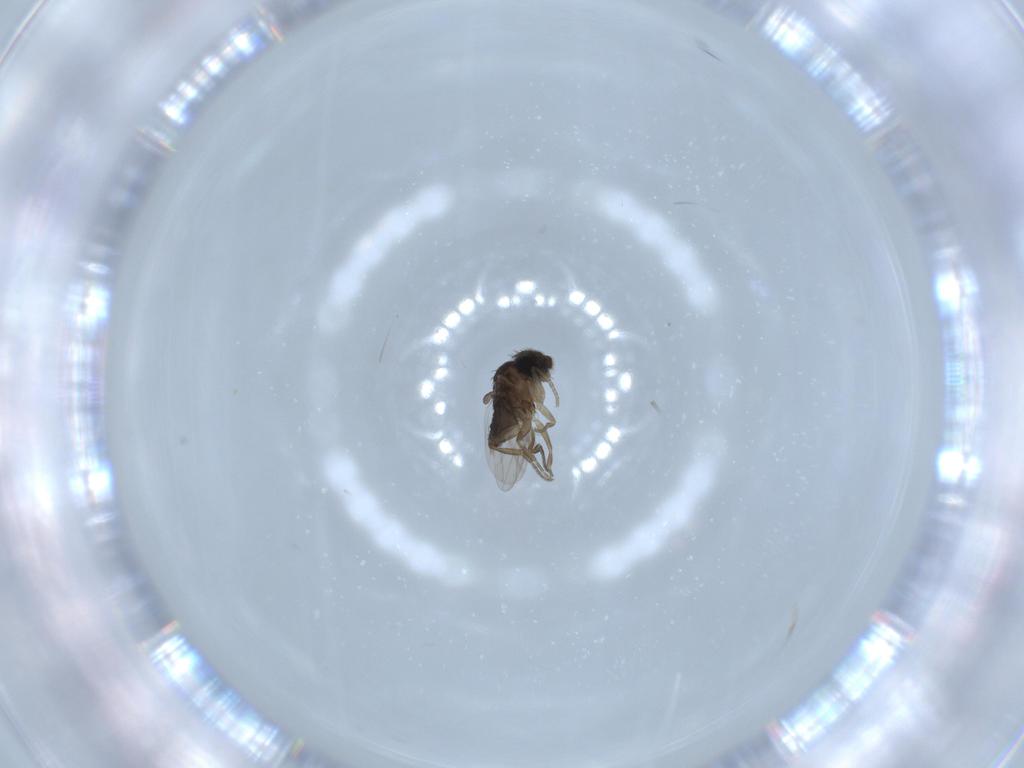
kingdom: Animalia
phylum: Arthropoda
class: Insecta
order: Diptera
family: Phoridae
